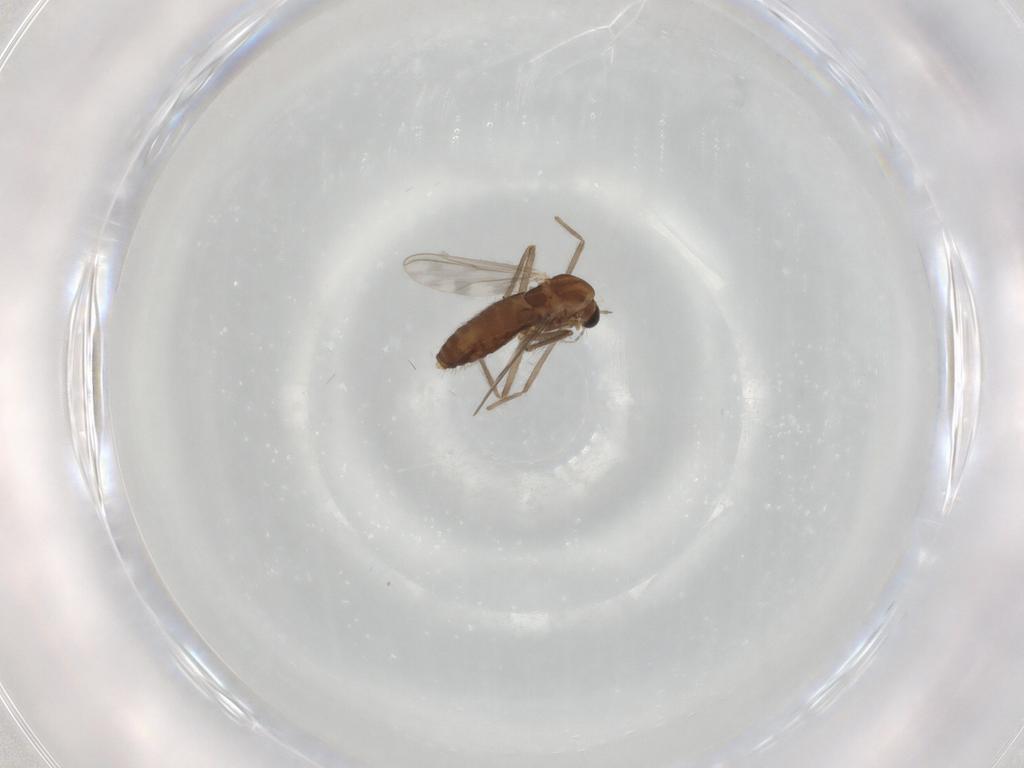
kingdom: Animalia
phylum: Arthropoda
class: Insecta
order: Diptera
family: Chironomidae
